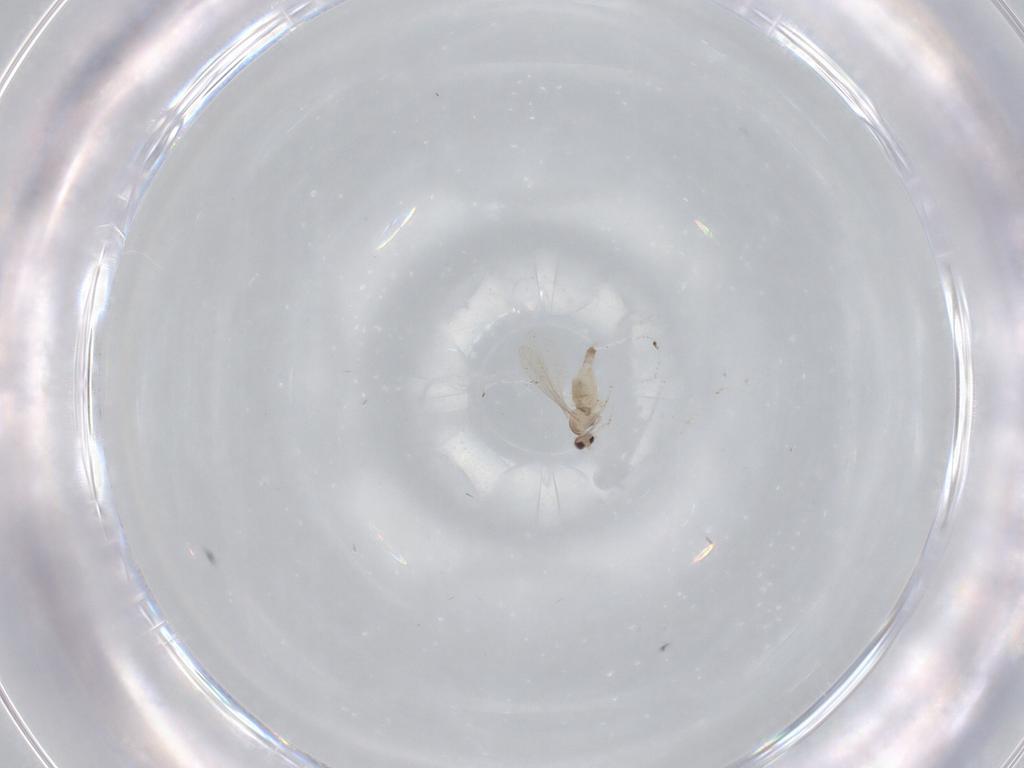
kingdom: Animalia
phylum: Arthropoda
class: Insecta
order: Diptera
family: Cecidomyiidae
